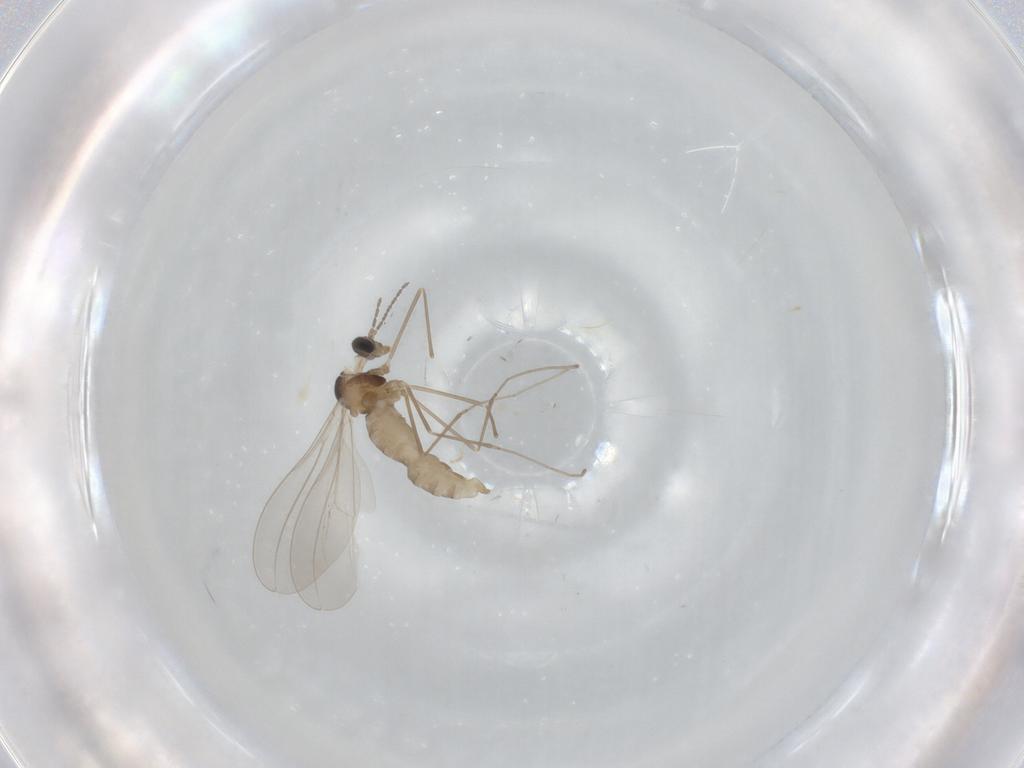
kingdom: Animalia
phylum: Arthropoda
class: Insecta
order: Diptera
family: Cecidomyiidae
